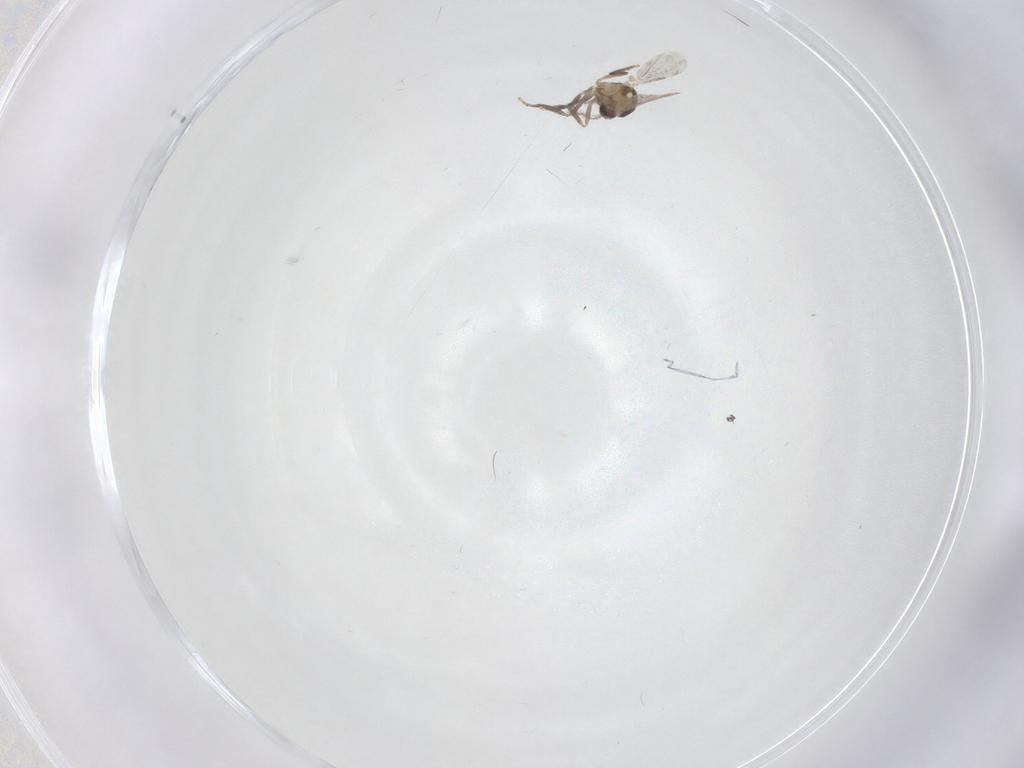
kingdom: Animalia
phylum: Arthropoda
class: Insecta
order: Diptera
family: Ceratopogonidae
